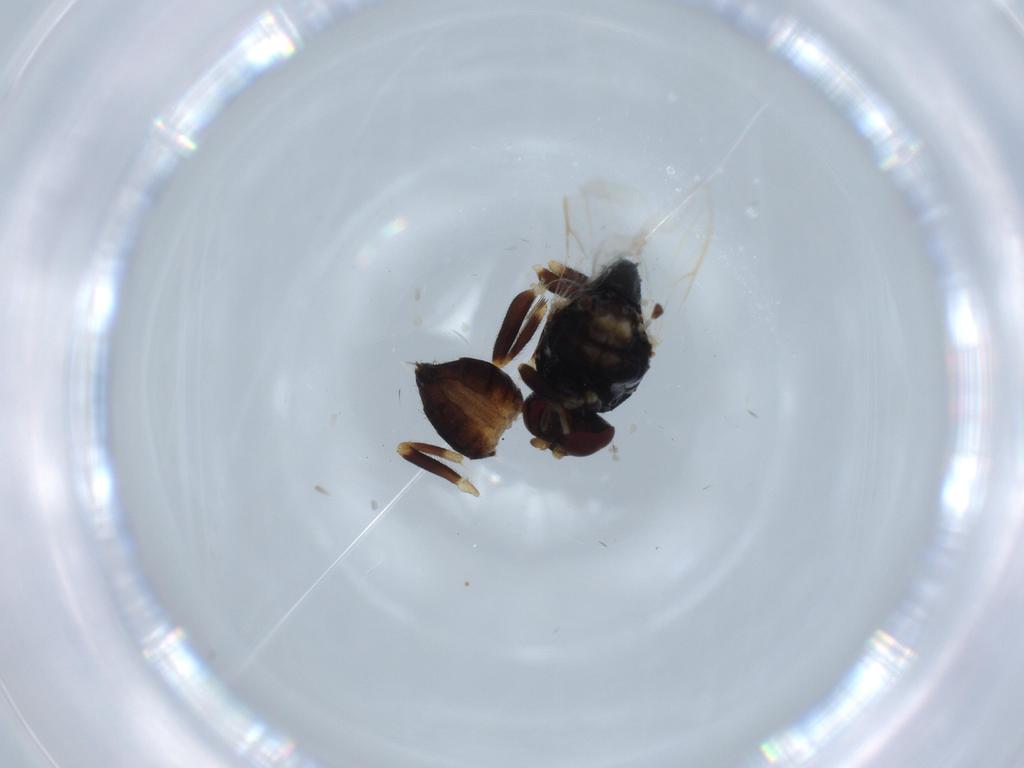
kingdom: Animalia
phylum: Arthropoda
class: Insecta
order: Diptera
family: Chloropidae
